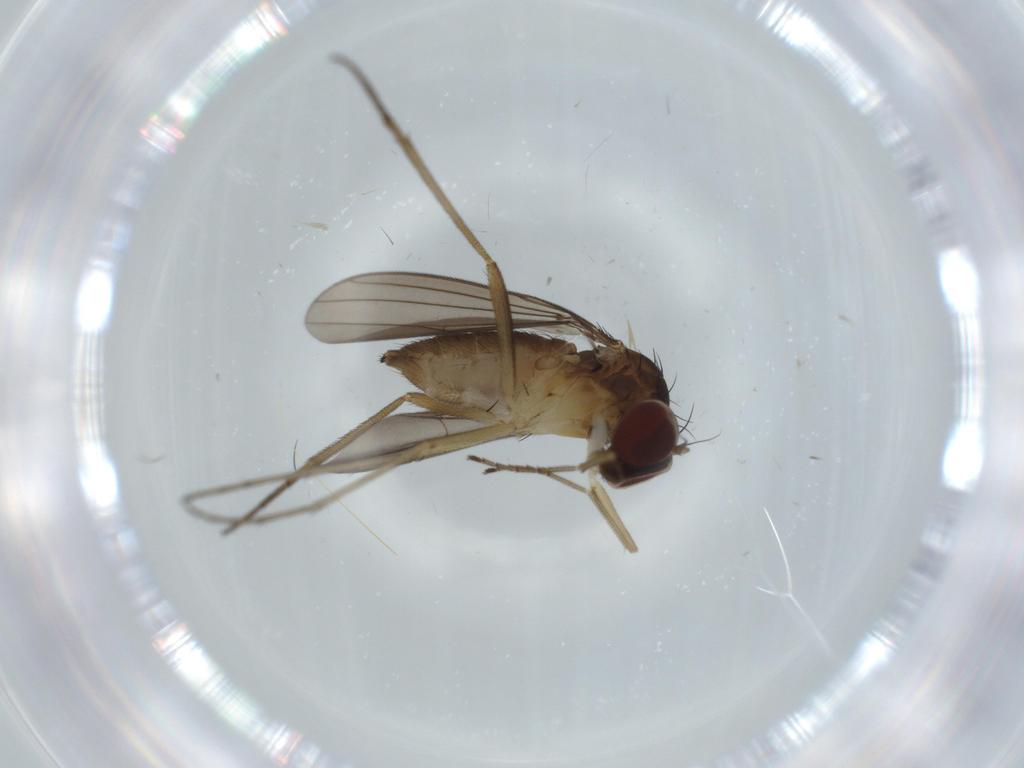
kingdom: Animalia
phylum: Arthropoda
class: Insecta
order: Diptera
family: Dolichopodidae
